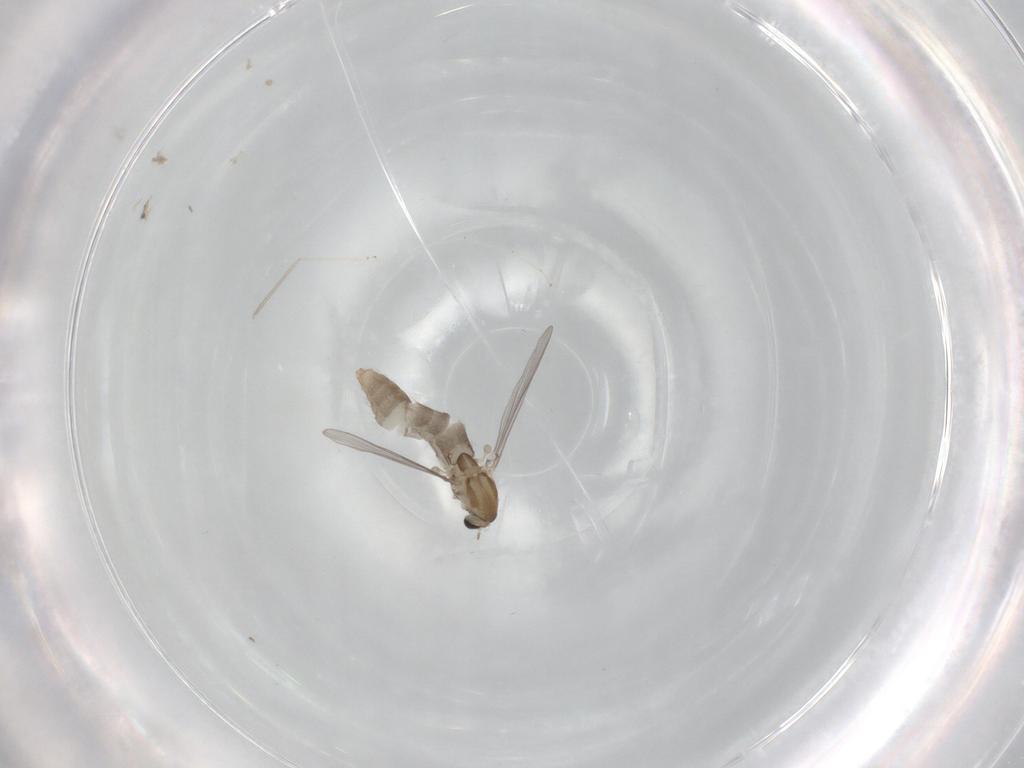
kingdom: Animalia
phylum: Arthropoda
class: Insecta
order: Diptera
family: Chironomidae
